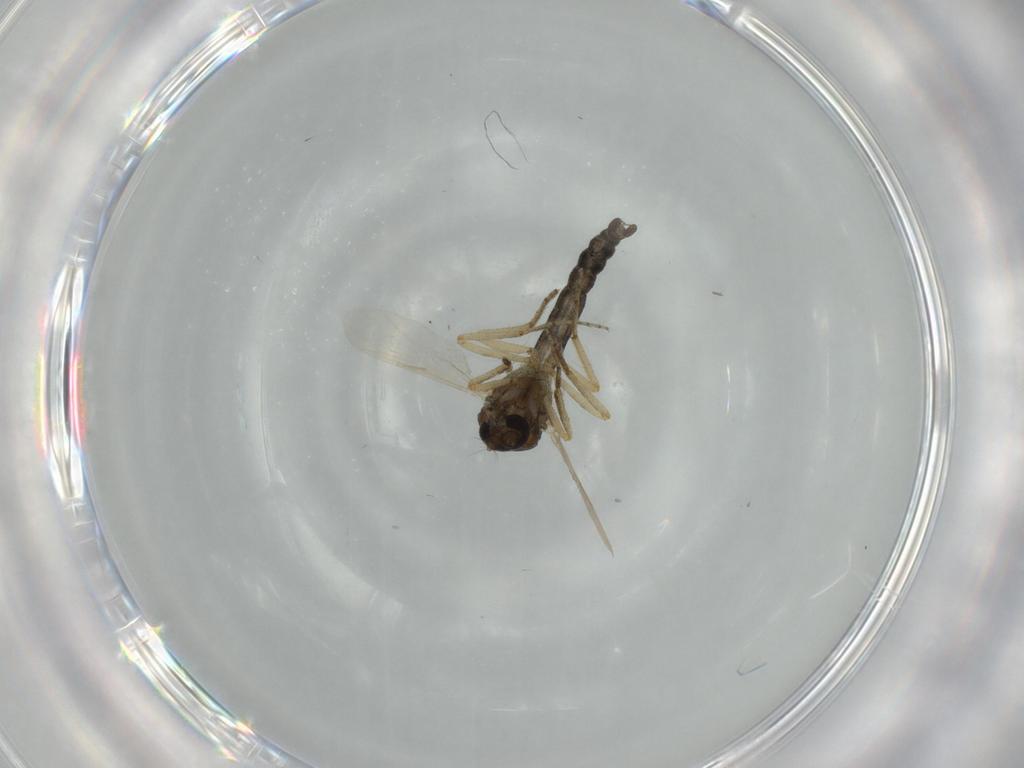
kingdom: Animalia
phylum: Arthropoda
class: Insecta
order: Diptera
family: Ceratopogonidae
